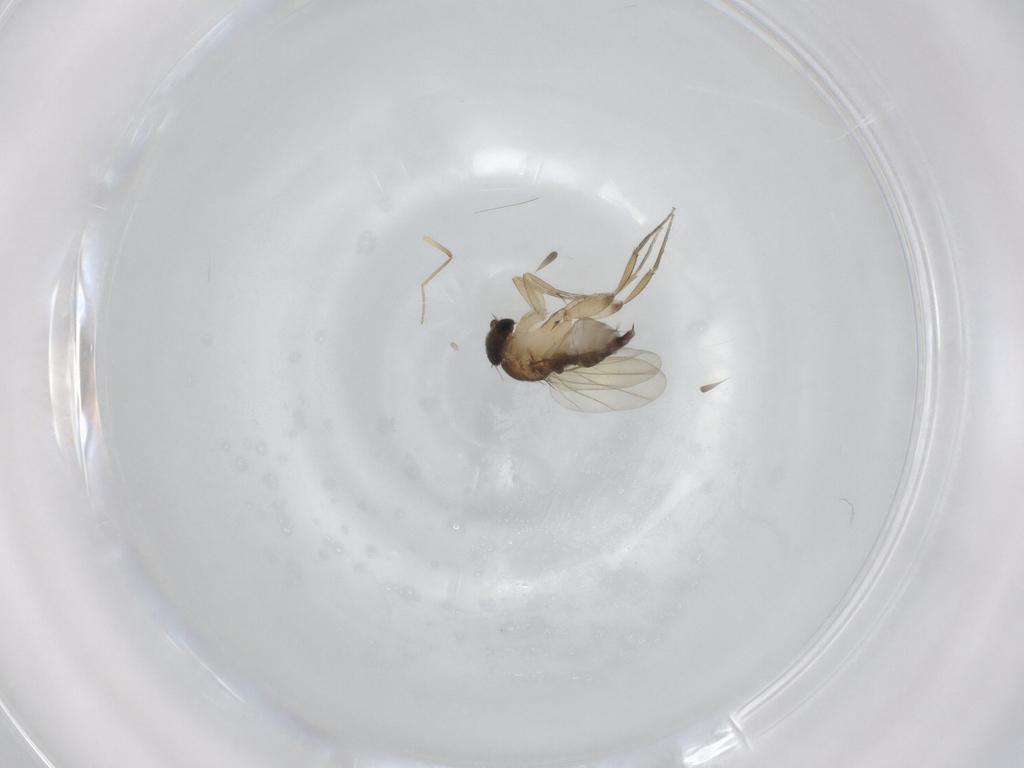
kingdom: Animalia
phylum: Arthropoda
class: Insecta
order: Diptera
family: Phoridae
